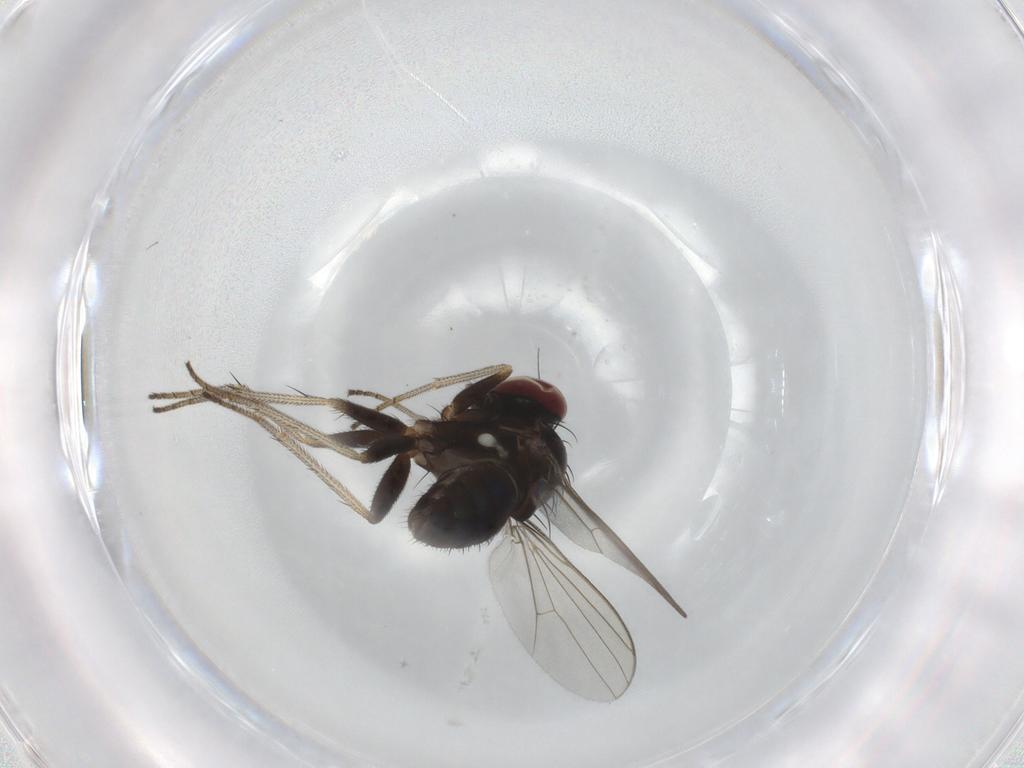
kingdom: Animalia
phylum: Arthropoda
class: Insecta
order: Diptera
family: Dolichopodidae
